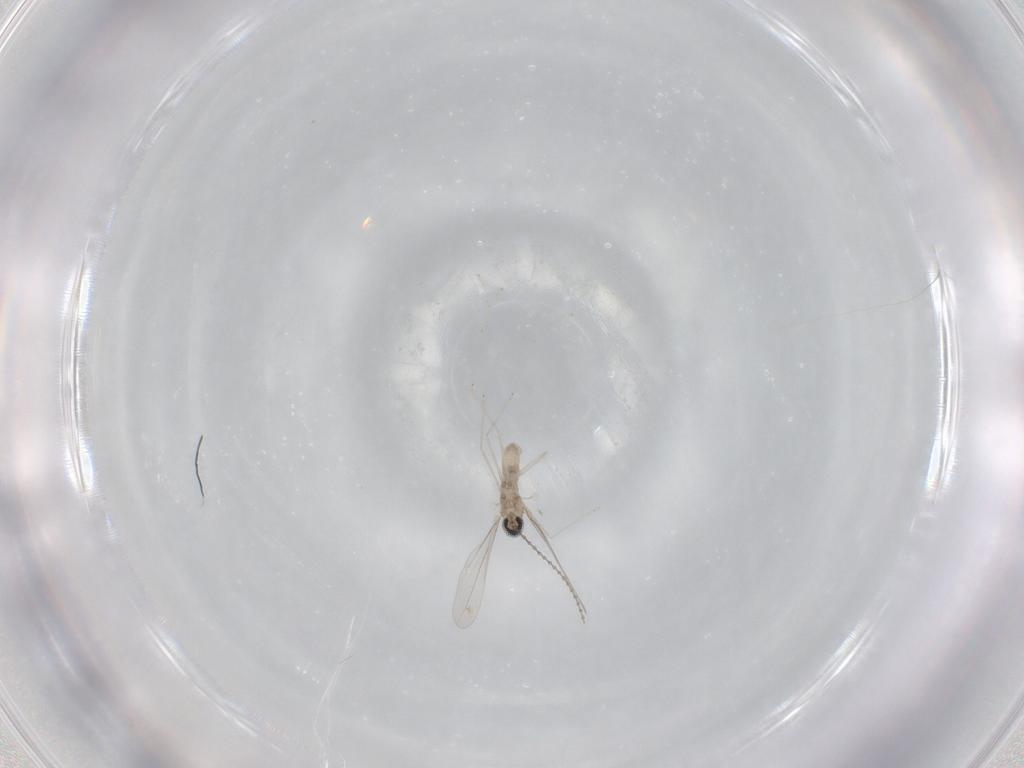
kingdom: Animalia
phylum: Arthropoda
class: Insecta
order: Diptera
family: Cecidomyiidae
